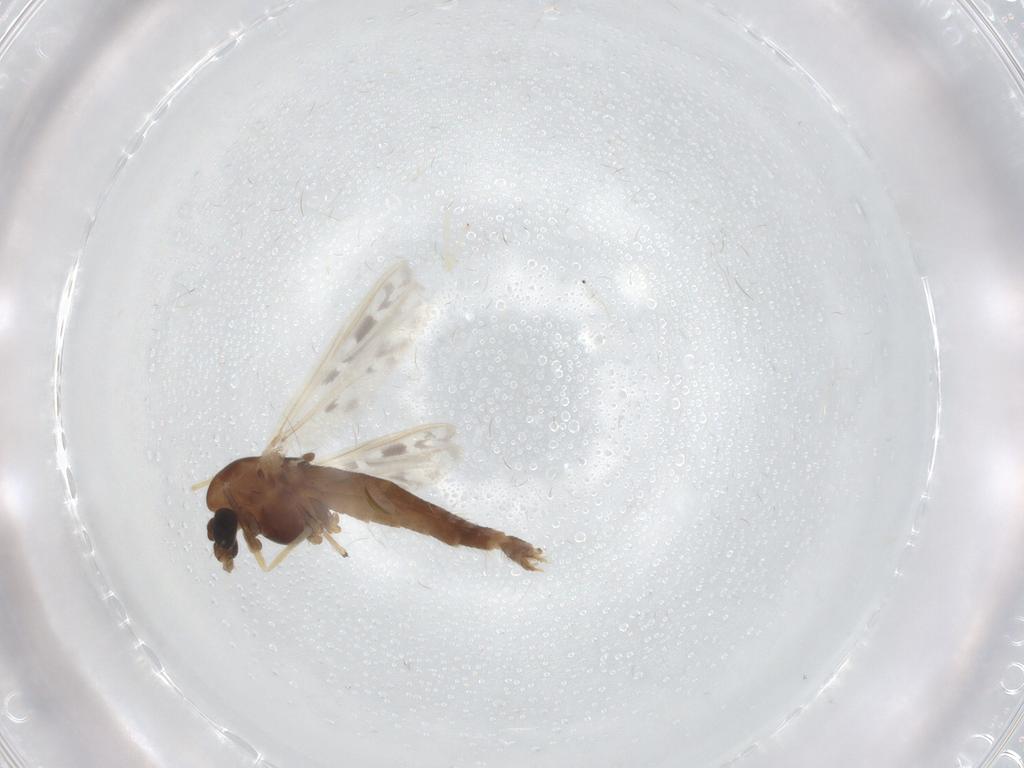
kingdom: Animalia
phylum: Arthropoda
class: Insecta
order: Diptera
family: Chironomidae
